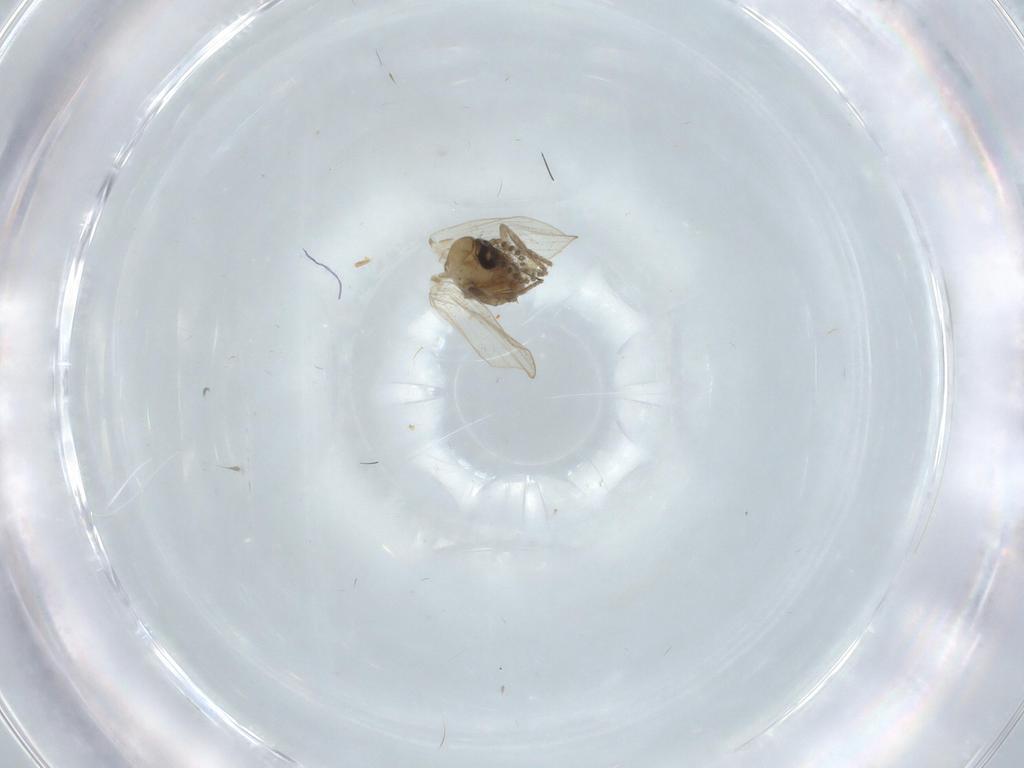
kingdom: Animalia
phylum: Arthropoda
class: Insecta
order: Diptera
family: Psychodidae
